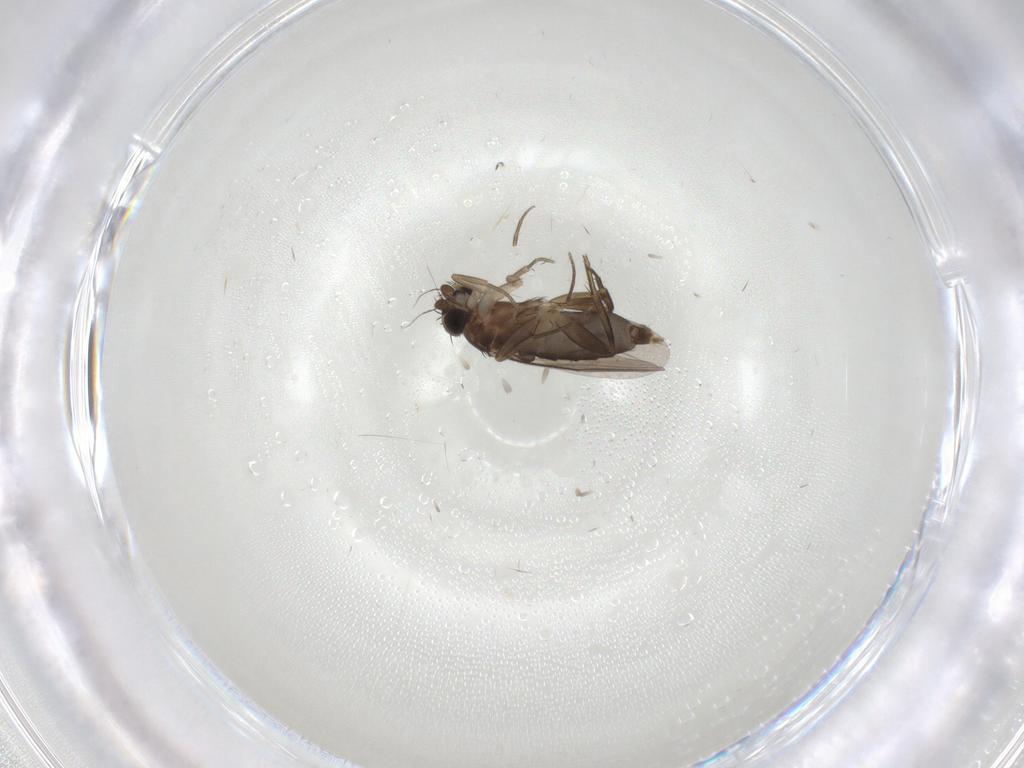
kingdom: Animalia
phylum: Arthropoda
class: Insecta
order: Diptera
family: Phoridae
